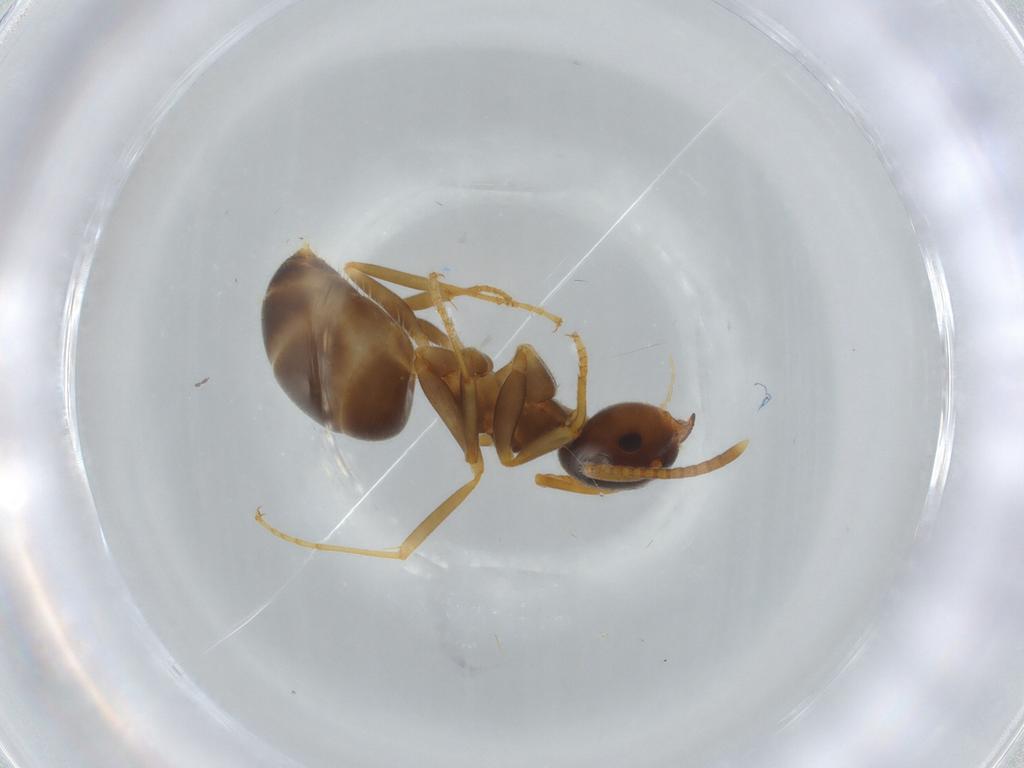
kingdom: Animalia
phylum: Arthropoda
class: Insecta
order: Hymenoptera
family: Formicidae
